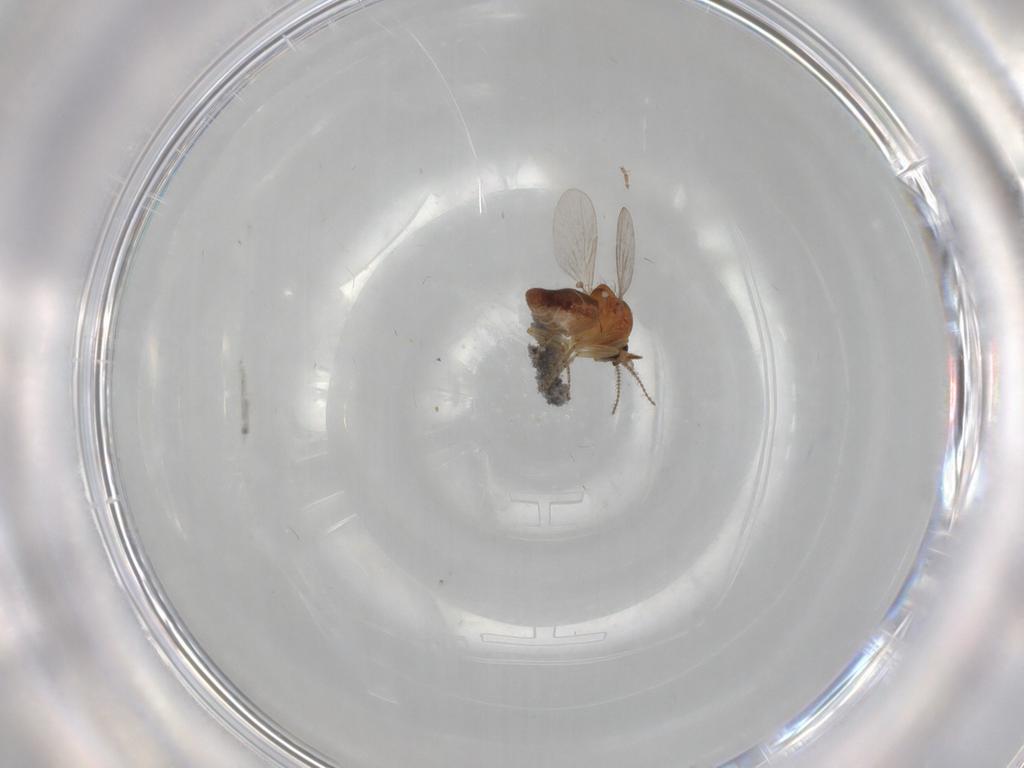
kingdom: Animalia
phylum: Arthropoda
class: Insecta
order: Diptera
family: Ceratopogonidae
